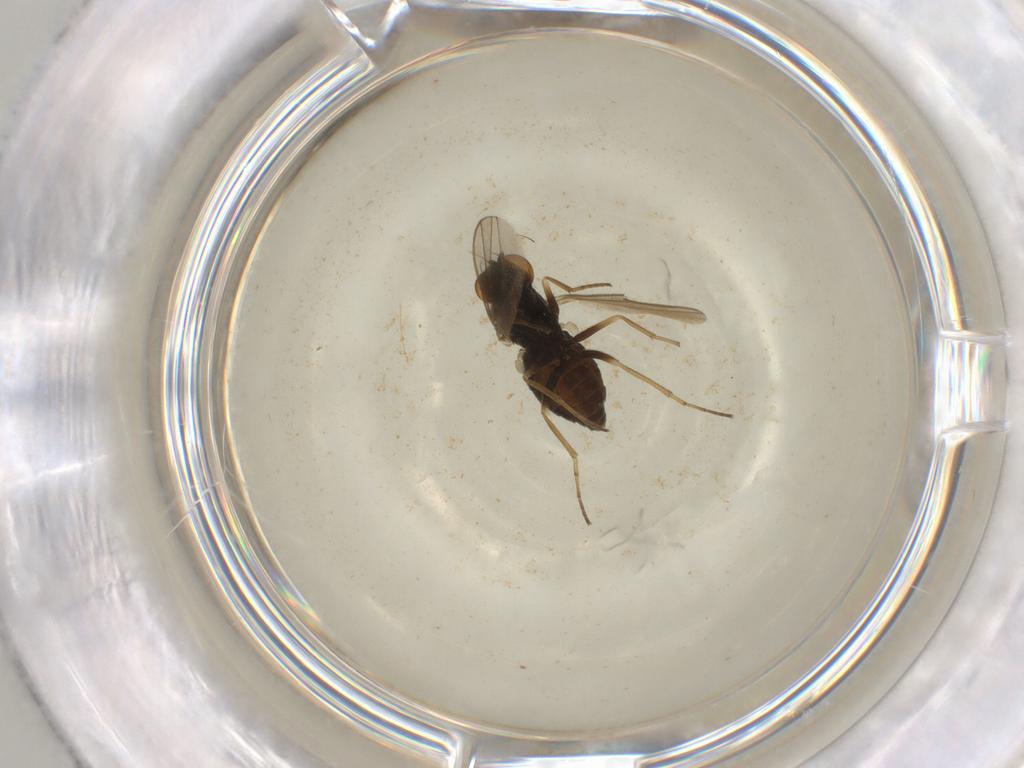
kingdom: Animalia
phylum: Arthropoda
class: Insecta
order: Diptera
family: Dolichopodidae
